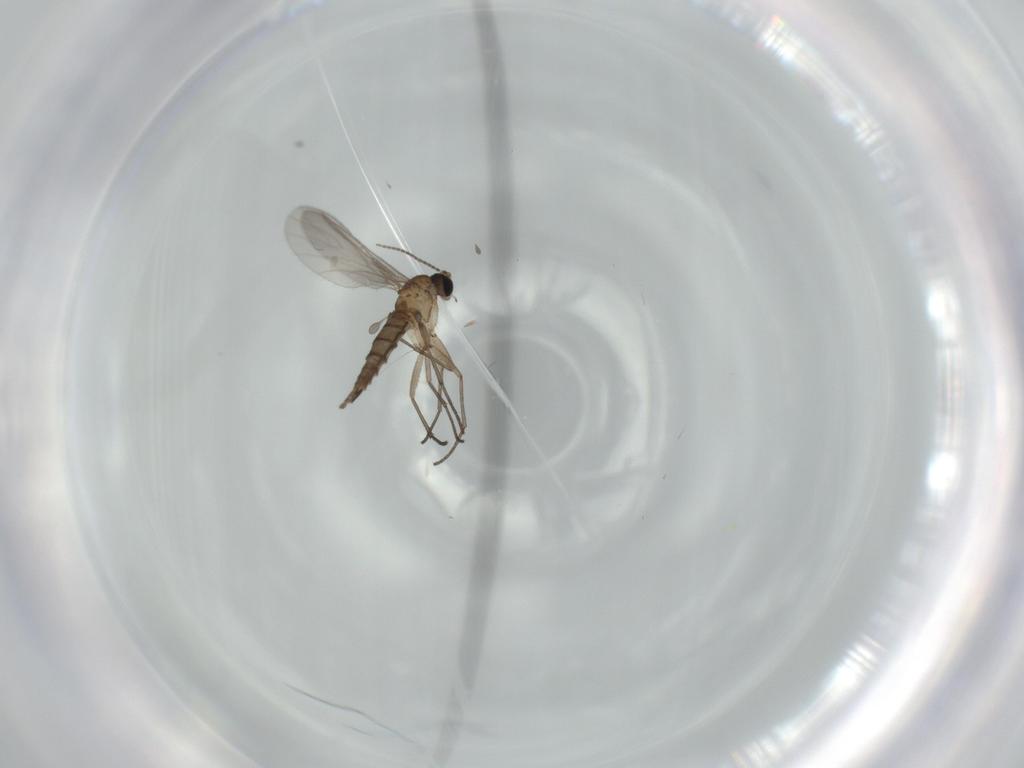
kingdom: Animalia
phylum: Arthropoda
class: Insecta
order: Diptera
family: Sciaridae
